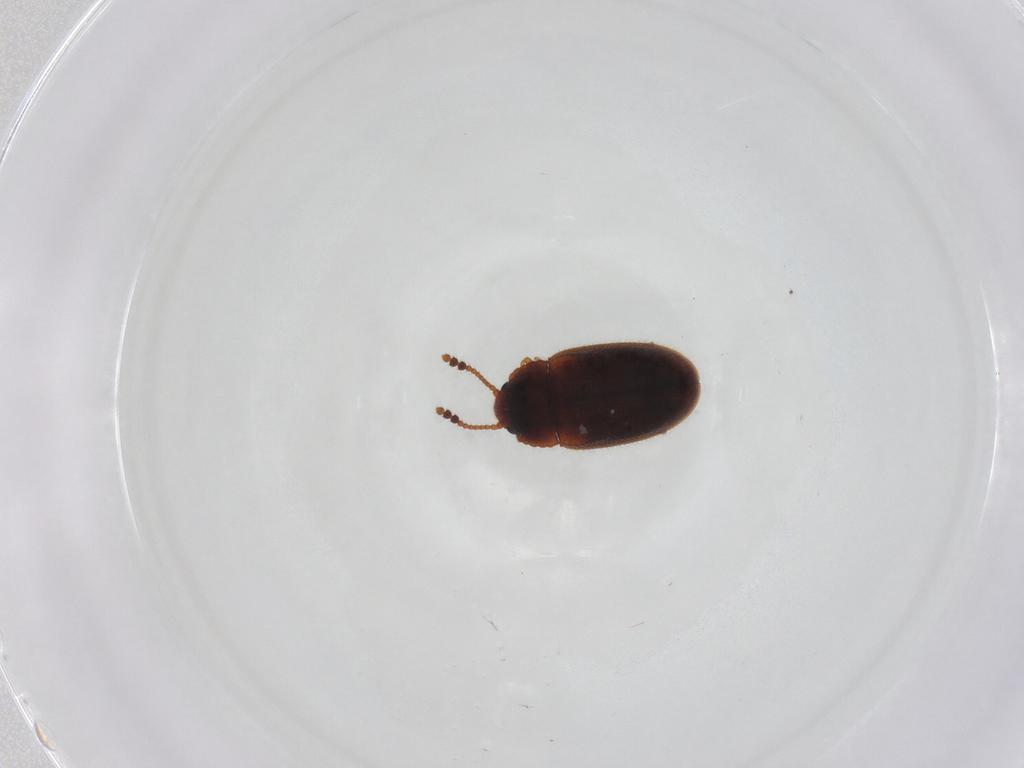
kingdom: Animalia
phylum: Arthropoda
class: Insecta
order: Coleoptera
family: Erotylidae
